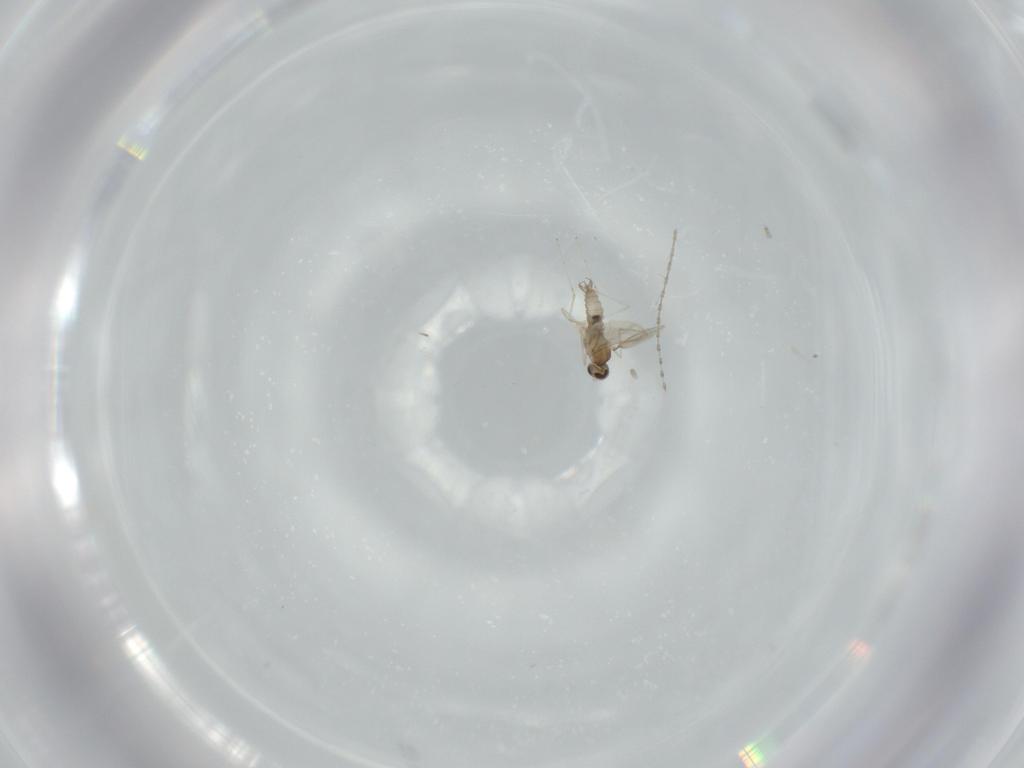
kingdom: Animalia
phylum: Arthropoda
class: Insecta
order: Diptera
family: Cecidomyiidae
